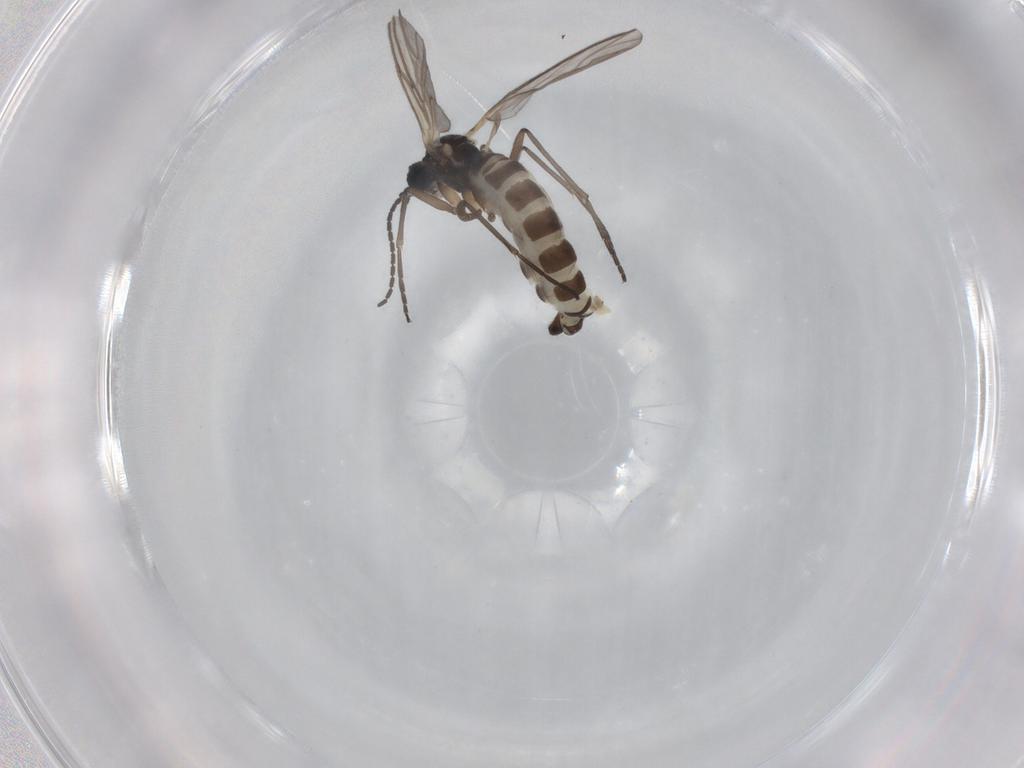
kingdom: Animalia
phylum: Arthropoda
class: Insecta
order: Diptera
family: Sciaridae
